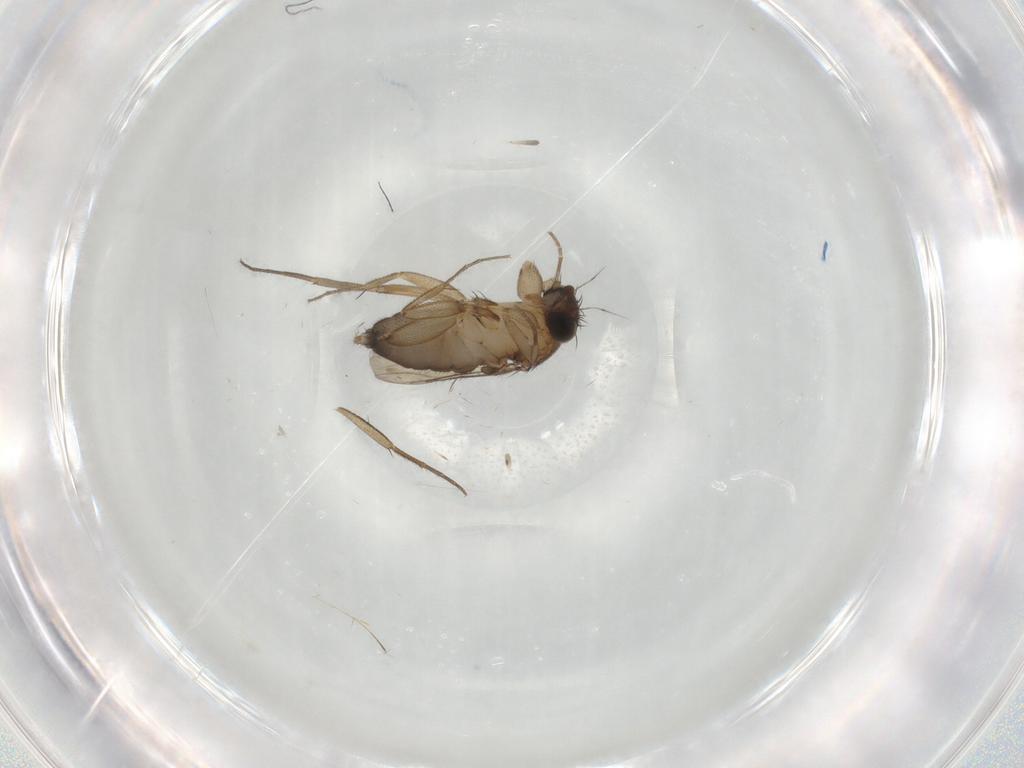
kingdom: Animalia
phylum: Arthropoda
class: Insecta
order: Diptera
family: Phoridae
